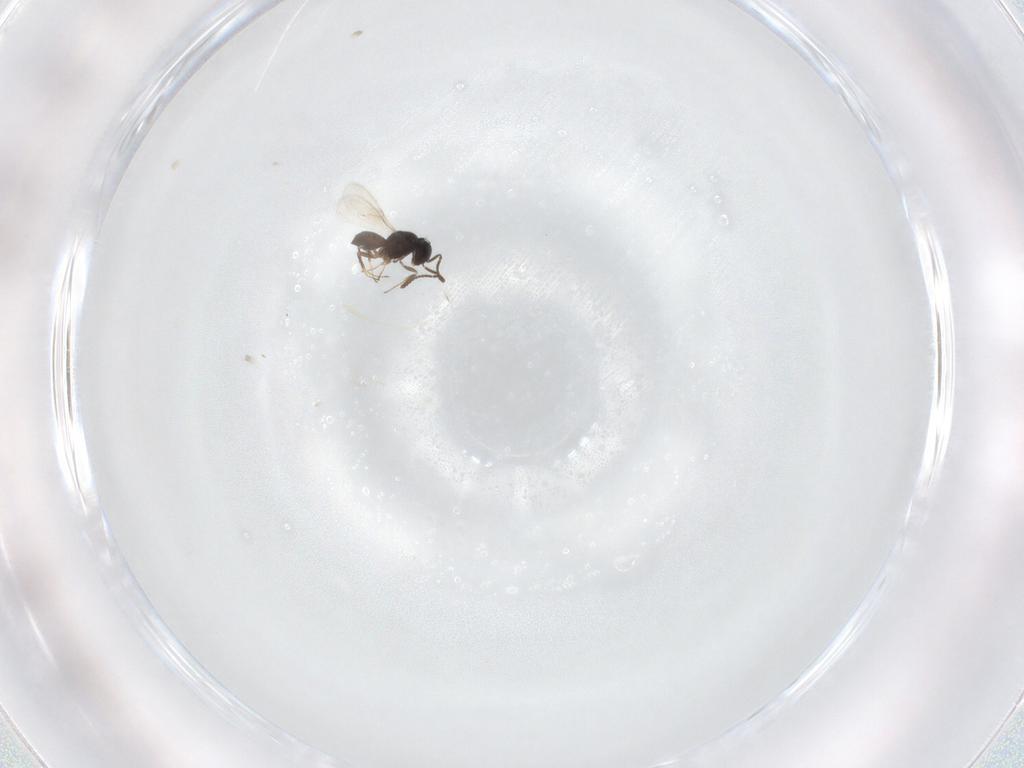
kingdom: Animalia
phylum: Arthropoda
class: Insecta
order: Hymenoptera
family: Scelionidae
